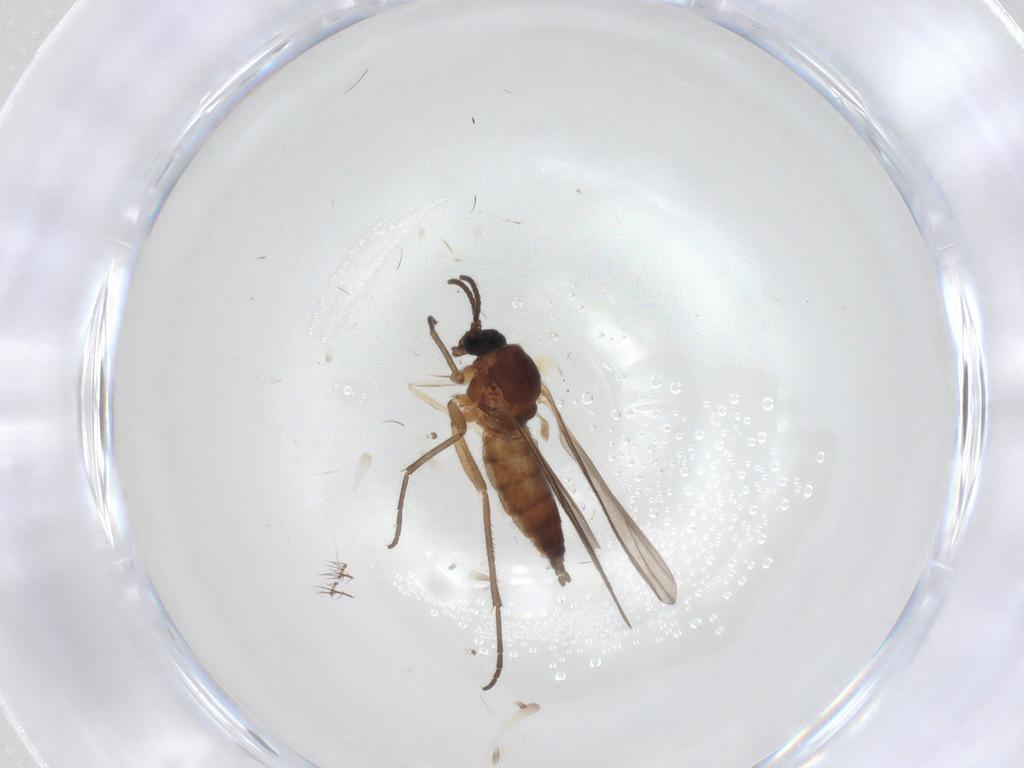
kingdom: Animalia
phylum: Arthropoda
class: Insecta
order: Diptera
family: Sciaridae
